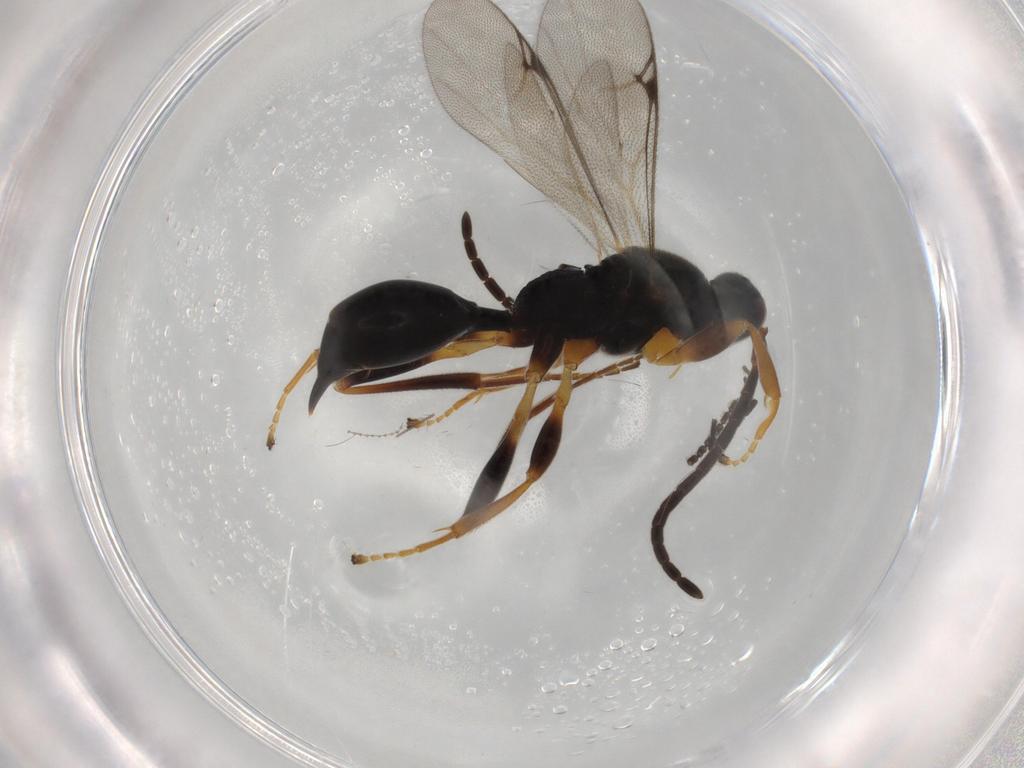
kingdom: Animalia
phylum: Arthropoda
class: Insecta
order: Hymenoptera
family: Proctotrupidae
